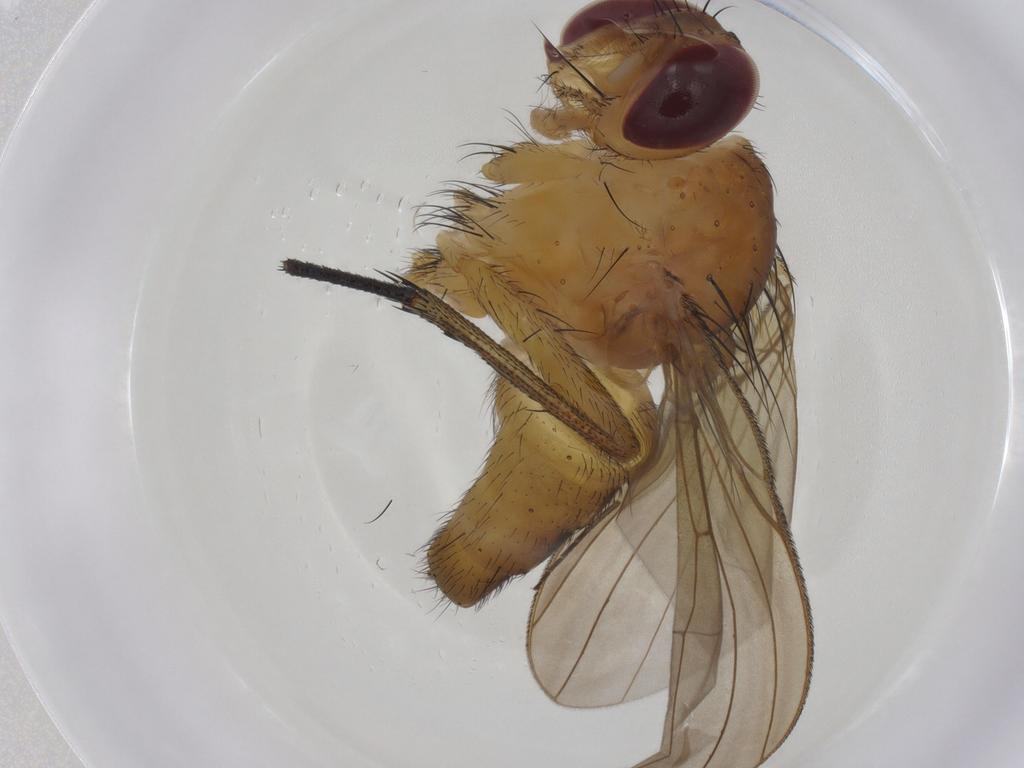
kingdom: Animalia
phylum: Arthropoda
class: Insecta
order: Diptera
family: Calliphoridae
